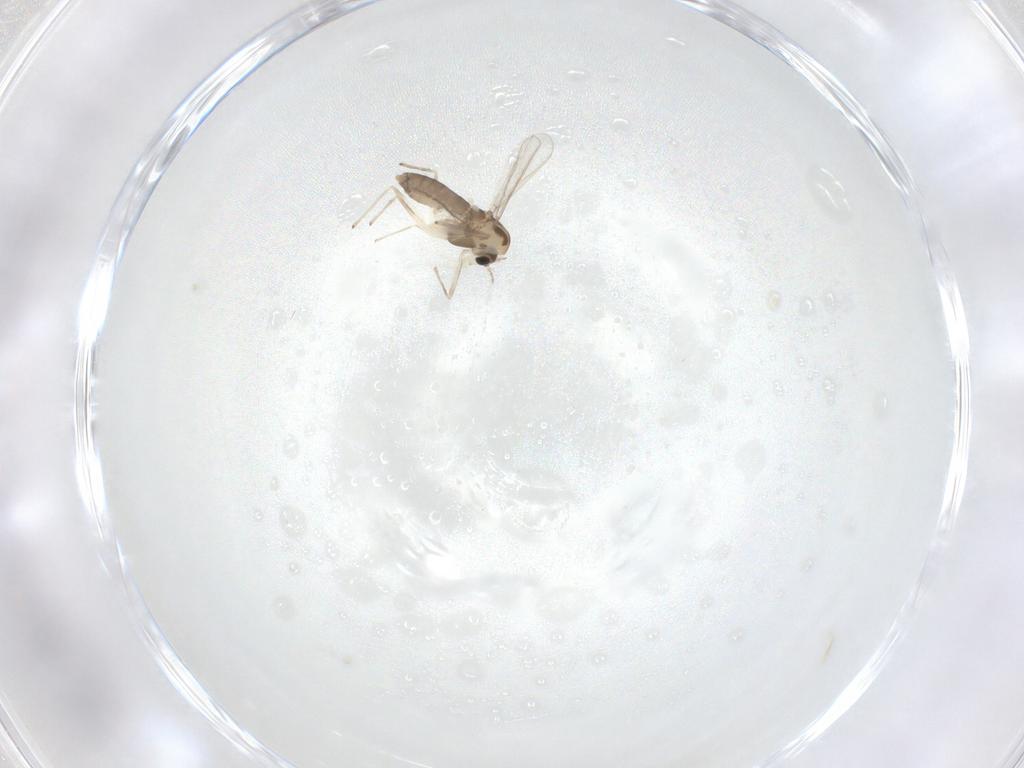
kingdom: Animalia
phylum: Arthropoda
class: Insecta
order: Diptera
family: Chironomidae
